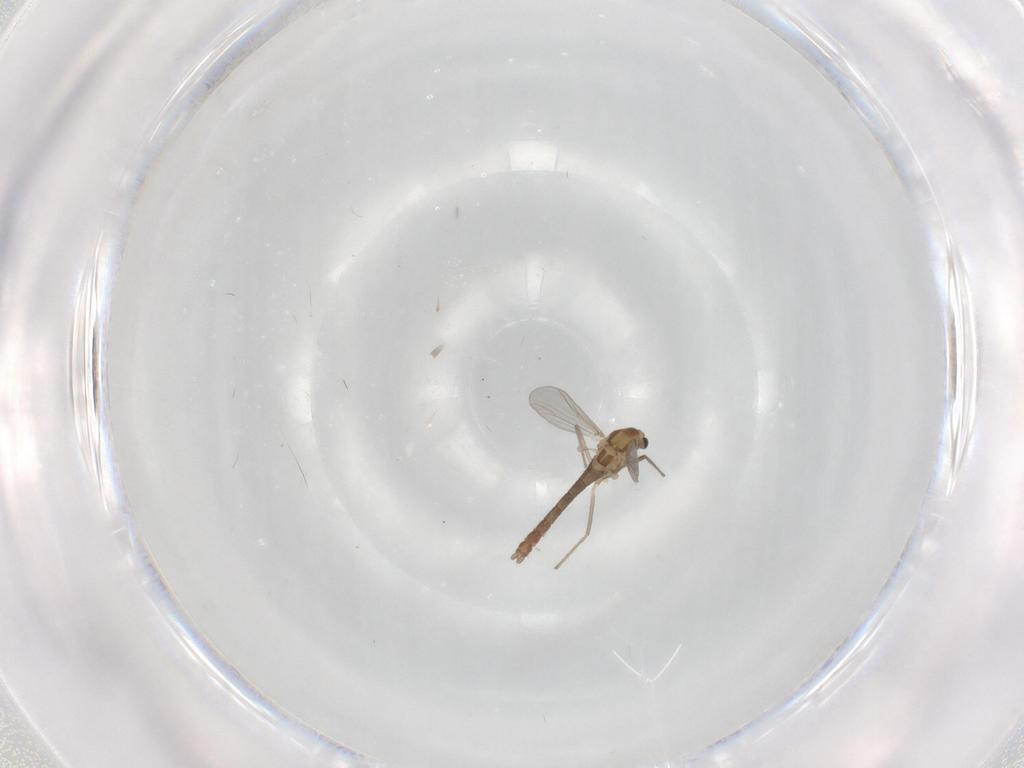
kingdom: Animalia
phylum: Arthropoda
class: Insecta
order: Diptera
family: Chironomidae
